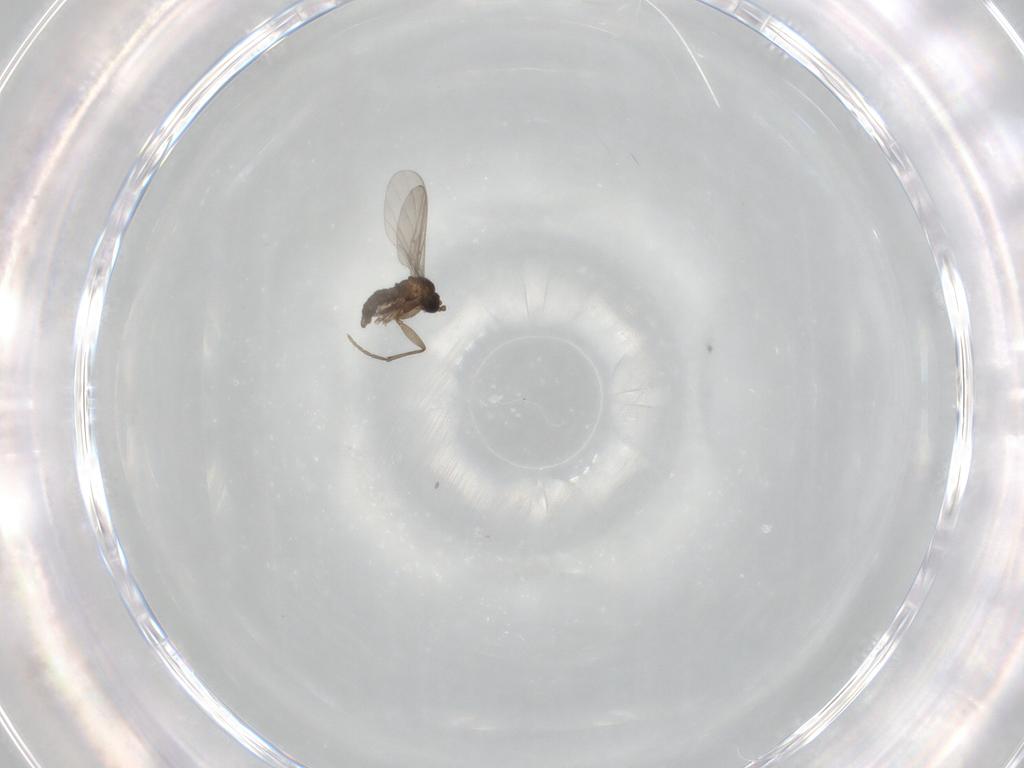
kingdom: Animalia
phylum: Arthropoda
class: Insecta
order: Diptera
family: Sciaridae
